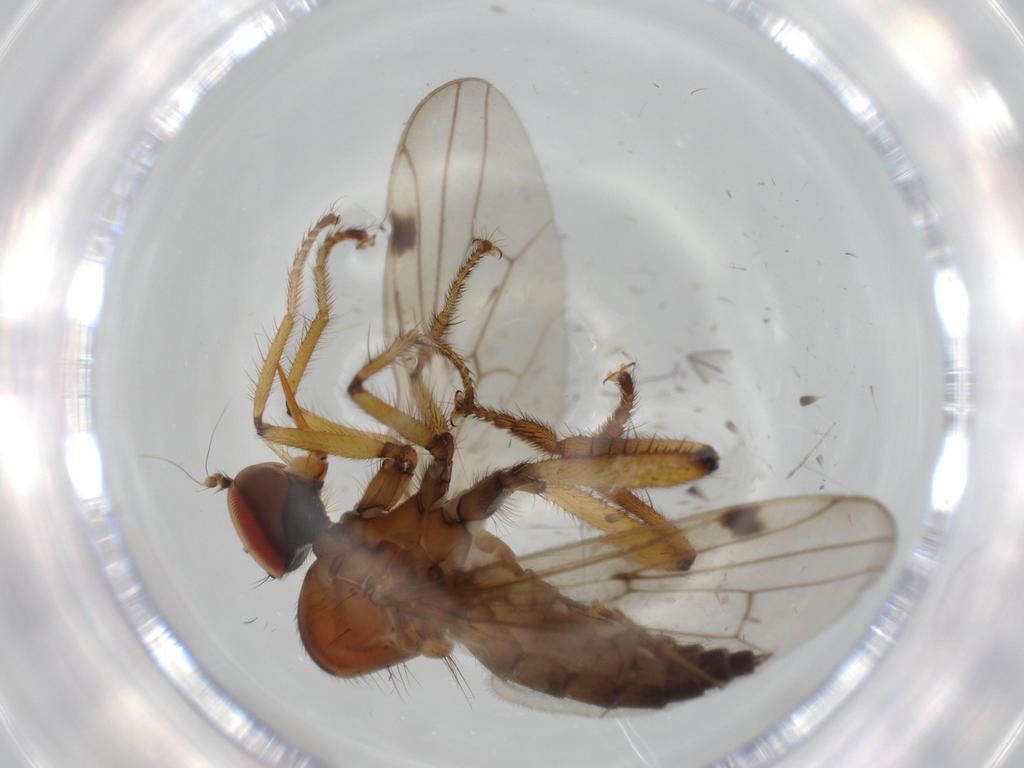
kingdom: Animalia
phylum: Arthropoda
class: Insecta
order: Diptera
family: Hybotidae
